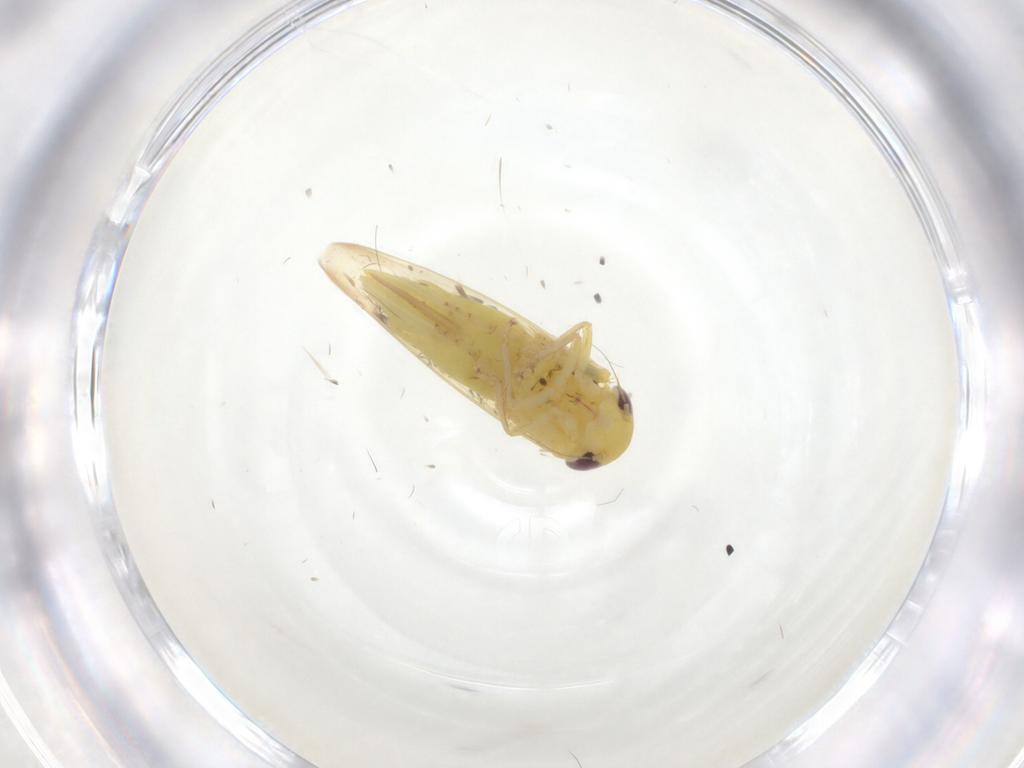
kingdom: Animalia
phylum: Arthropoda
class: Insecta
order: Hemiptera
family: Cicadellidae
